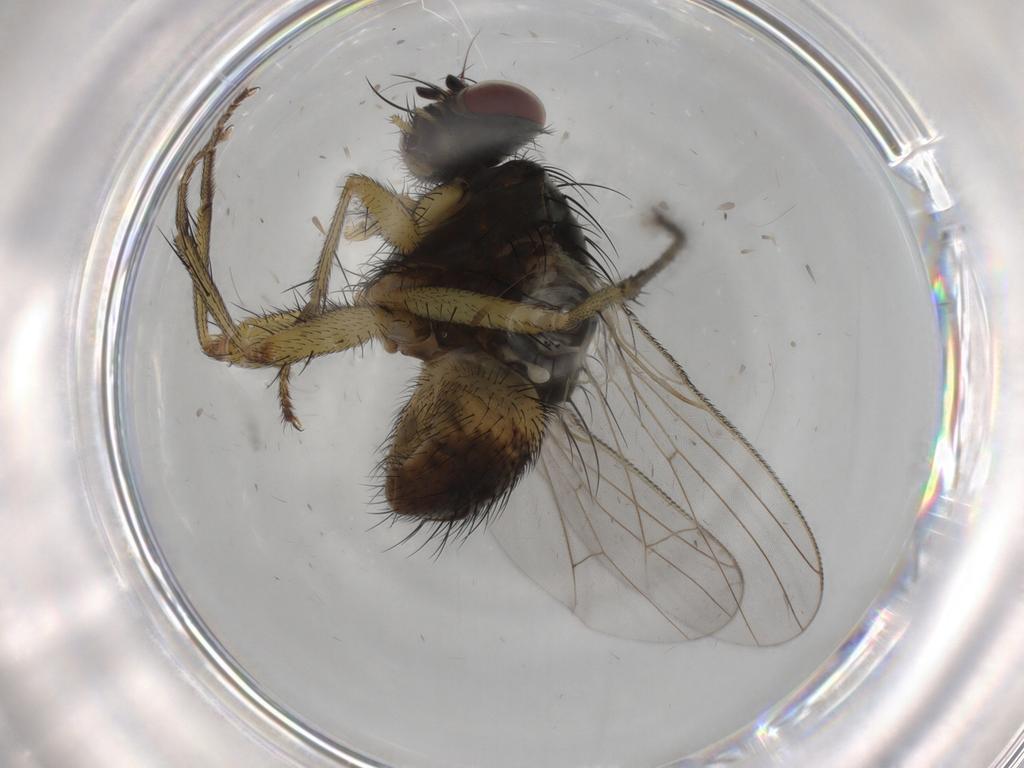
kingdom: Animalia
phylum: Arthropoda
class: Insecta
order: Diptera
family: Muscidae
